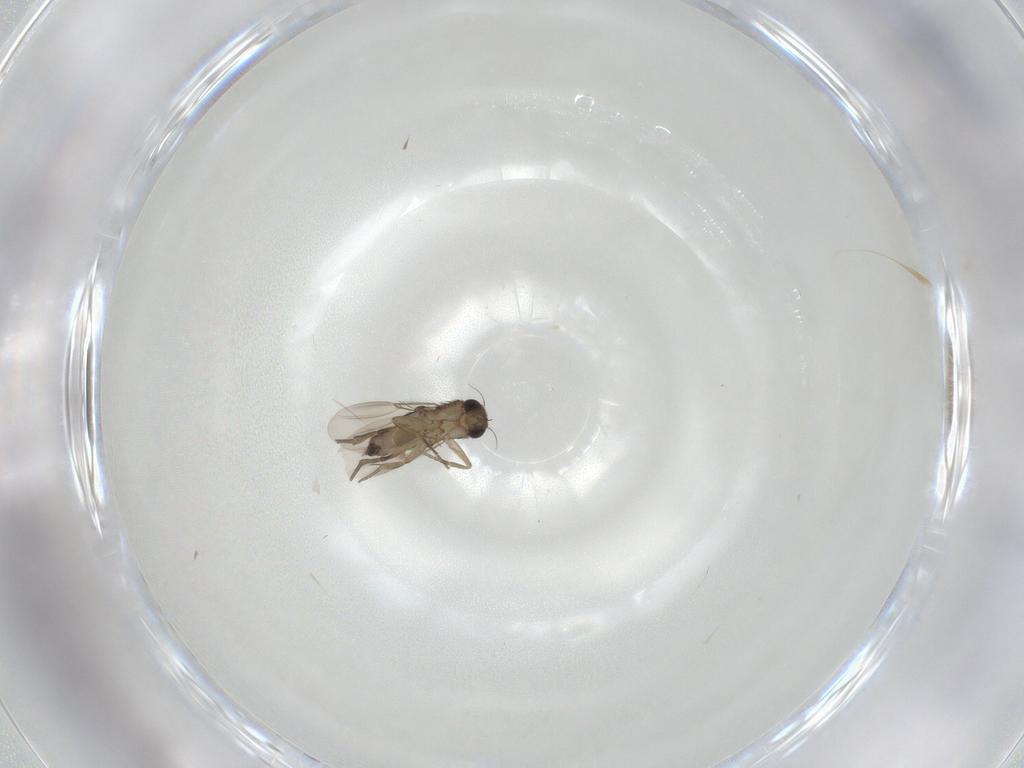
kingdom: Animalia
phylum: Arthropoda
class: Insecta
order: Diptera
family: Phoridae
